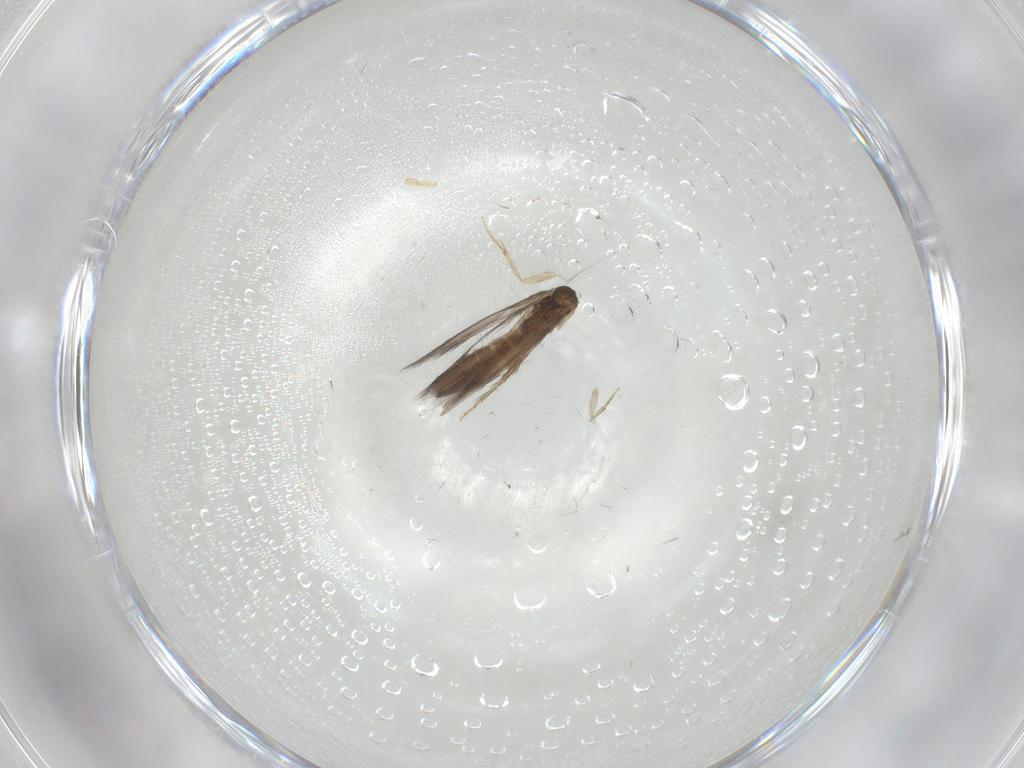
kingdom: Animalia
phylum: Arthropoda
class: Insecta
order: Trichoptera
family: Hydroptilidae
